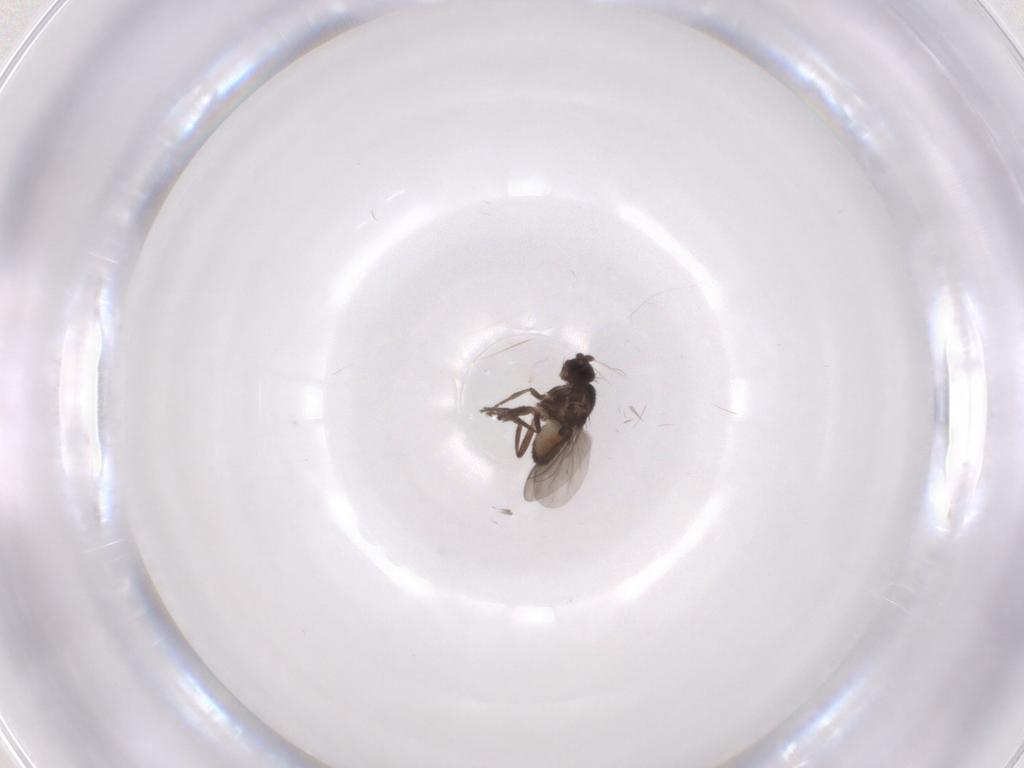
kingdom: Animalia
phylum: Arthropoda
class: Insecta
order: Diptera
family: Sphaeroceridae
